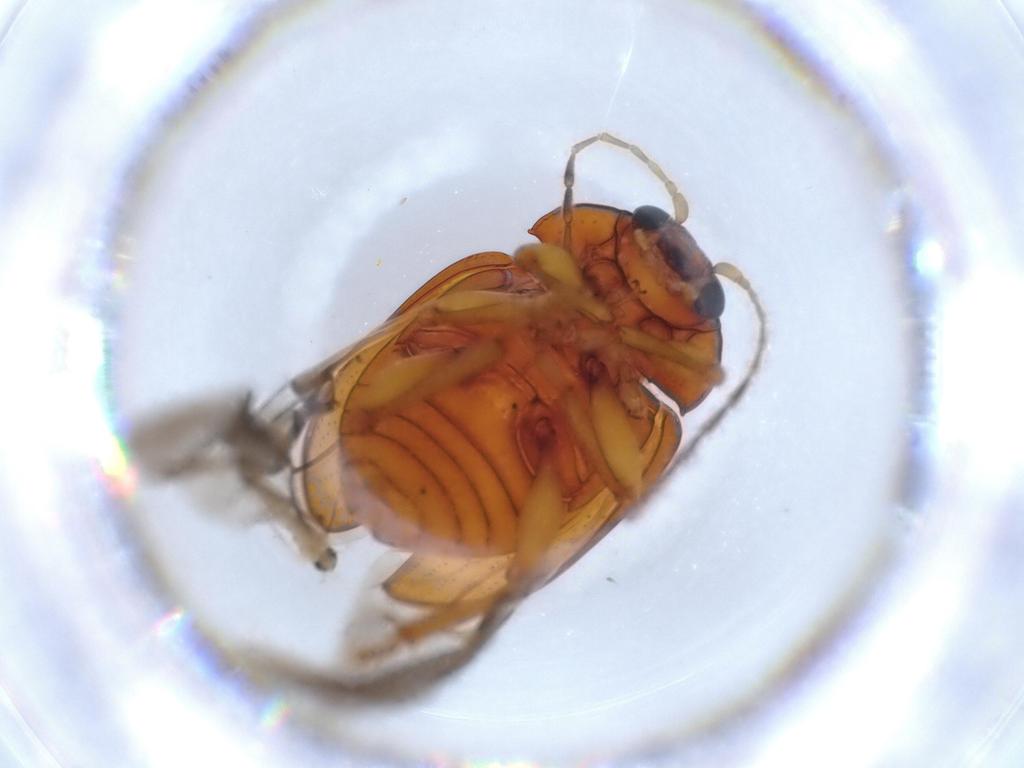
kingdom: Animalia
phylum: Arthropoda
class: Insecta
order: Coleoptera
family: Chrysomelidae
